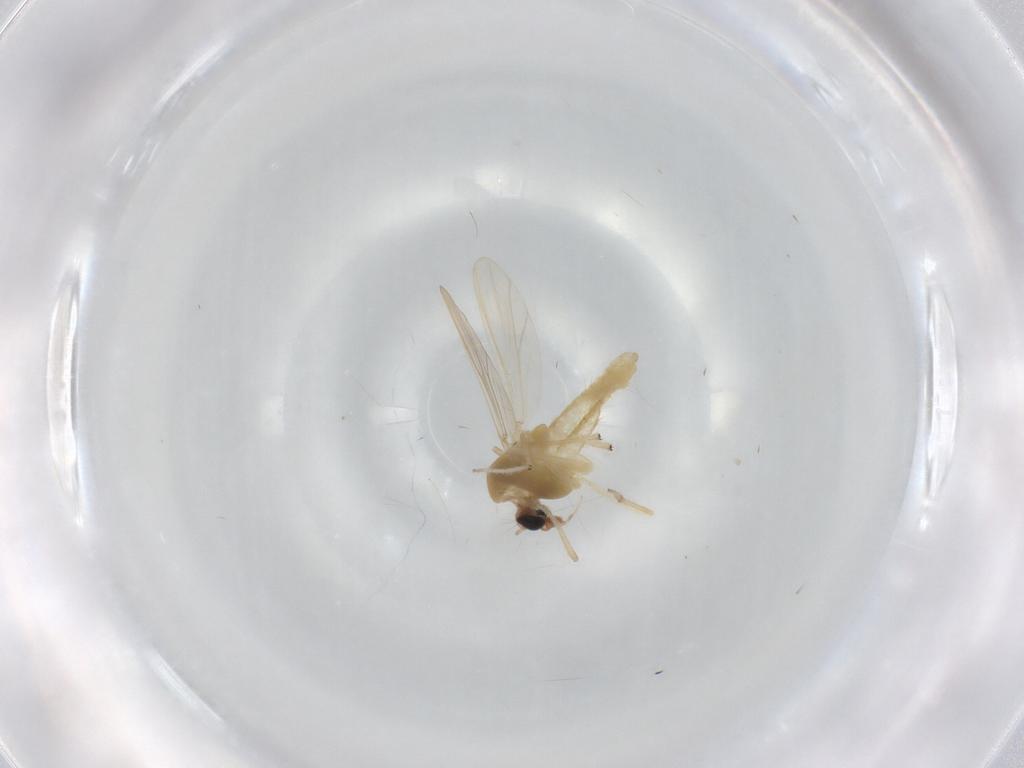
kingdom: Animalia
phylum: Arthropoda
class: Insecta
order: Diptera
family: Chironomidae
